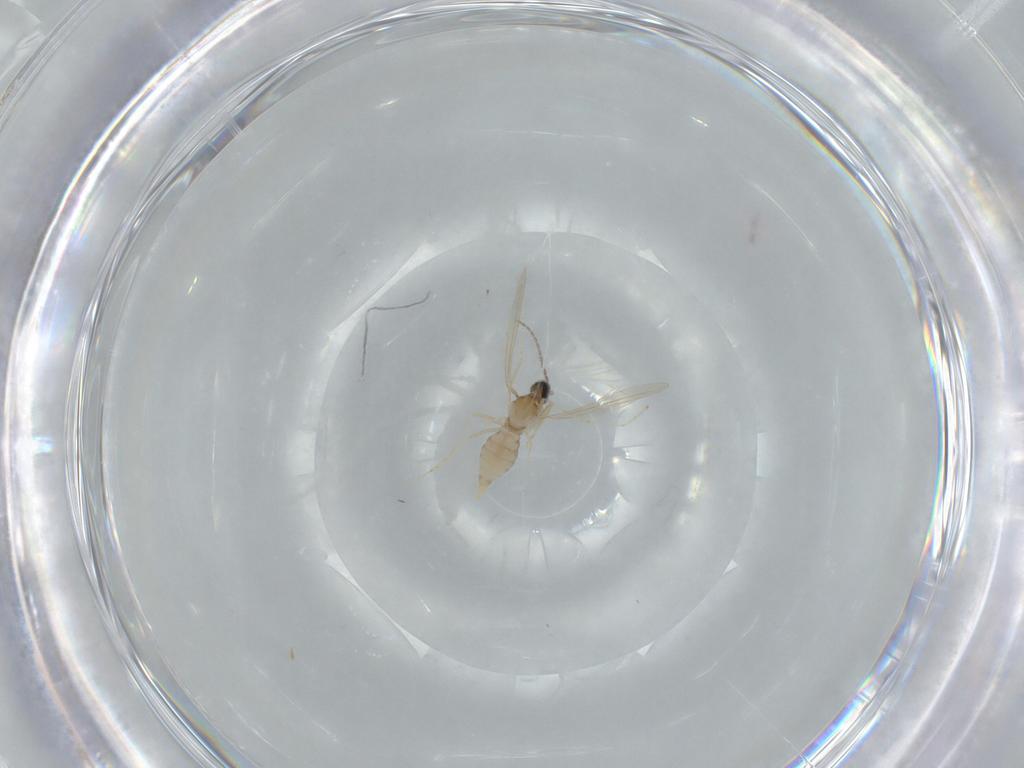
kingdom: Animalia
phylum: Arthropoda
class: Insecta
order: Diptera
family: Cecidomyiidae
